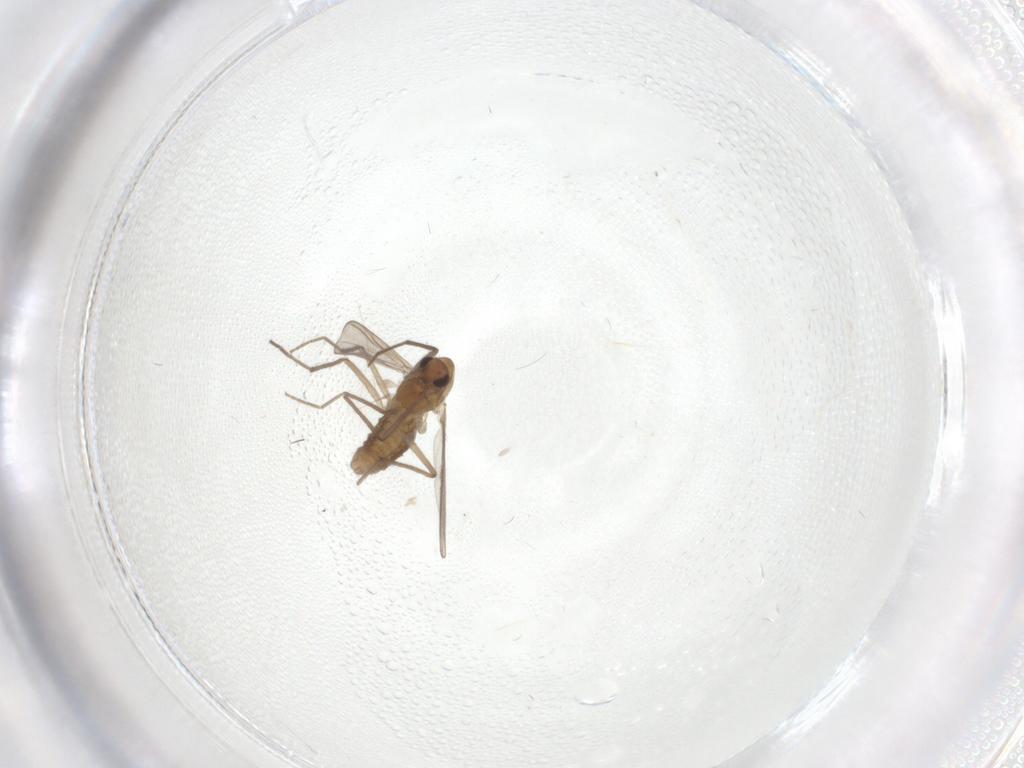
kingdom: Animalia
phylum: Arthropoda
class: Insecta
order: Diptera
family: Chironomidae
